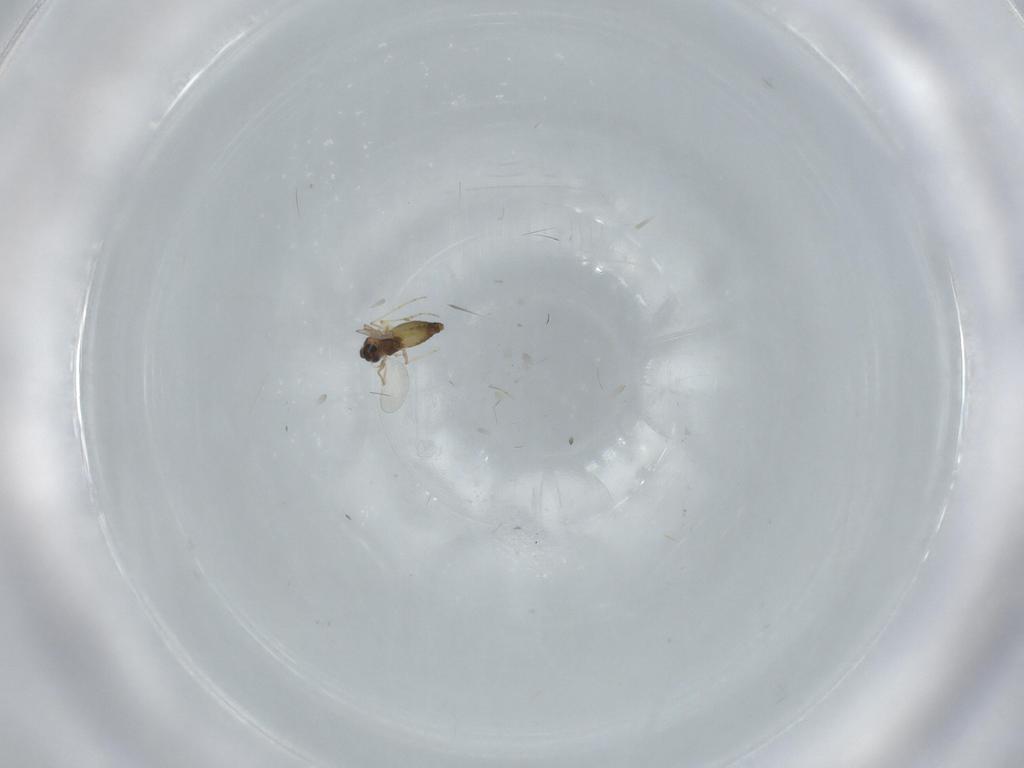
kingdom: Animalia
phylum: Arthropoda
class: Insecta
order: Diptera
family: Chironomidae
